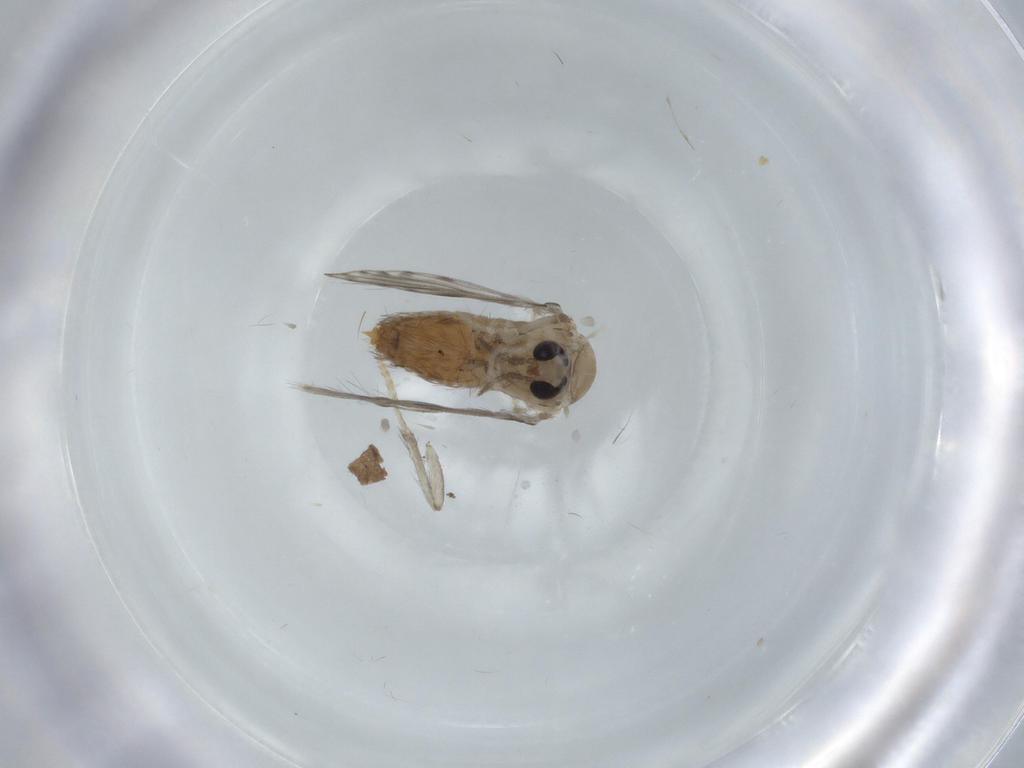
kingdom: Animalia
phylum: Arthropoda
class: Insecta
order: Diptera
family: Psychodidae
